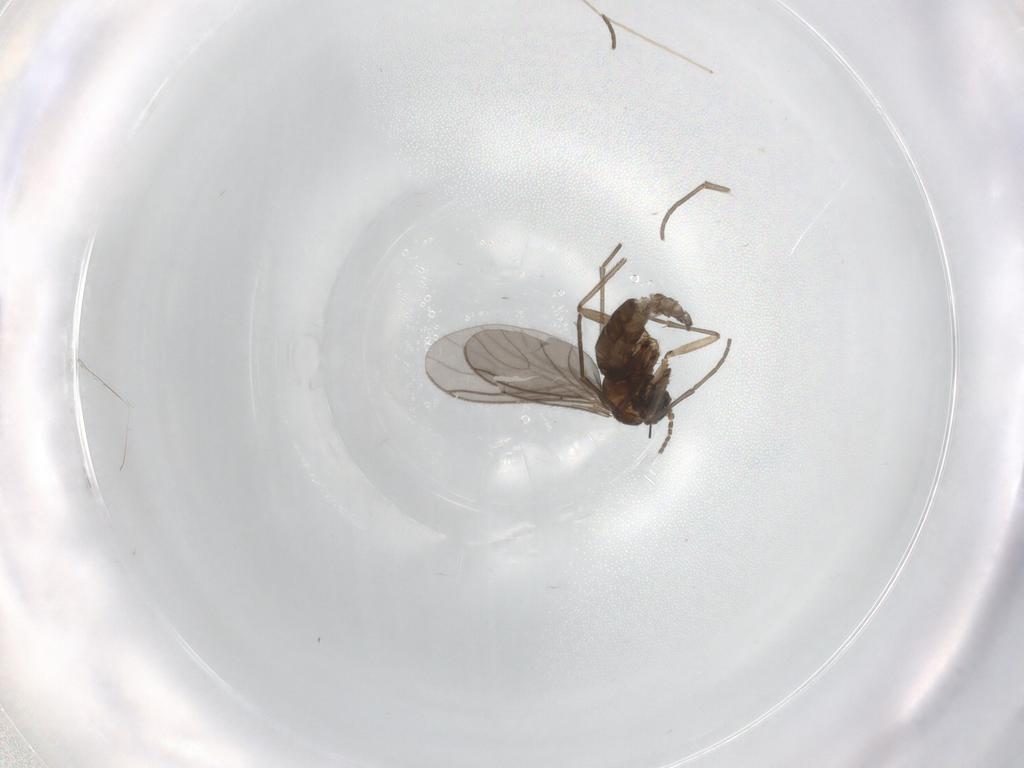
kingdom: Animalia
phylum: Arthropoda
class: Insecta
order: Diptera
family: Sciaridae
